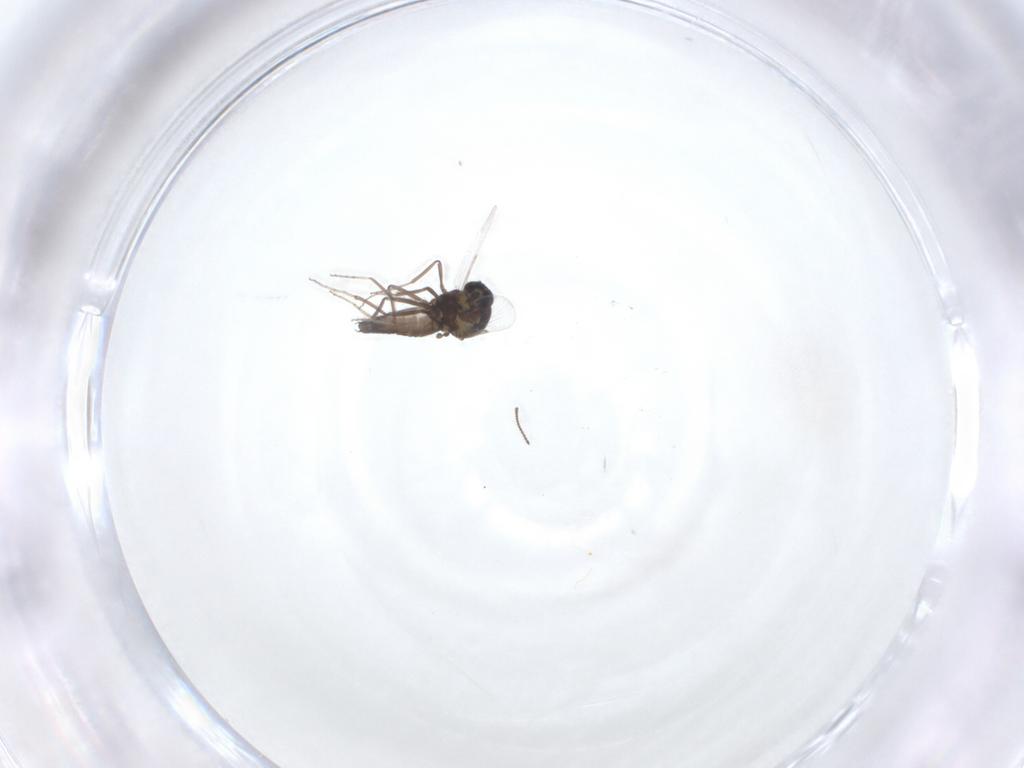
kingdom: Animalia
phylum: Arthropoda
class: Insecta
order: Diptera
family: Ceratopogonidae
